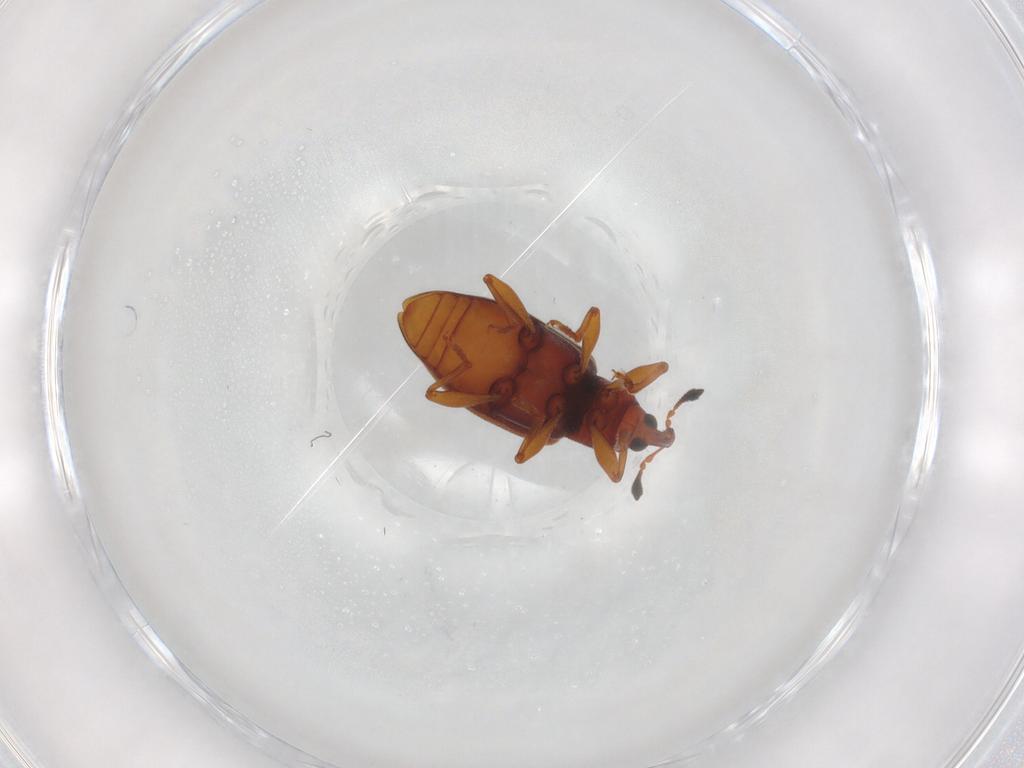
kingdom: Animalia
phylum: Arthropoda
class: Insecta
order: Coleoptera
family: Curculionidae
